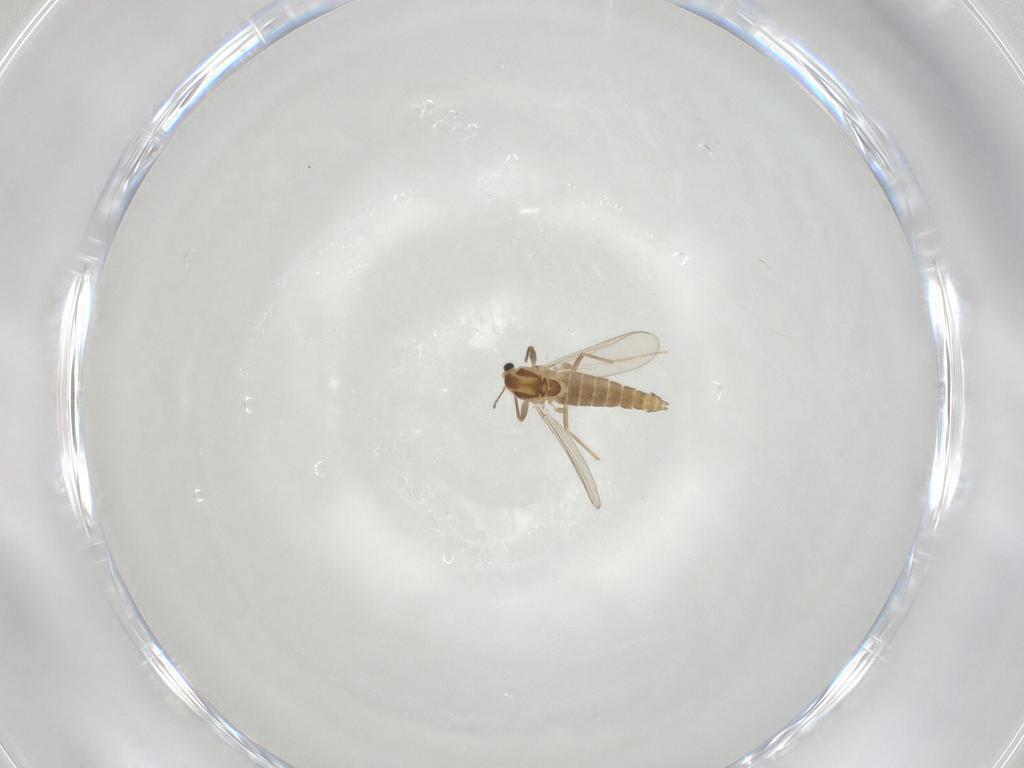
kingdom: Animalia
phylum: Arthropoda
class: Insecta
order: Diptera
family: Chironomidae
